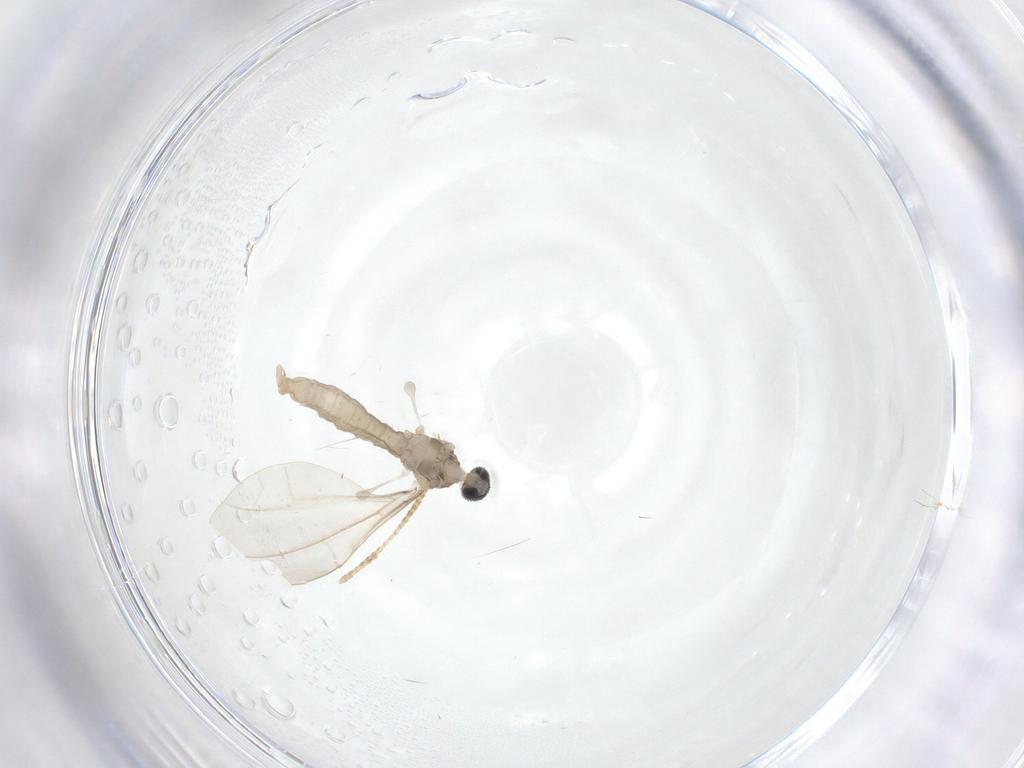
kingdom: Animalia
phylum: Arthropoda
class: Insecta
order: Diptera
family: Cecidomyiidae
